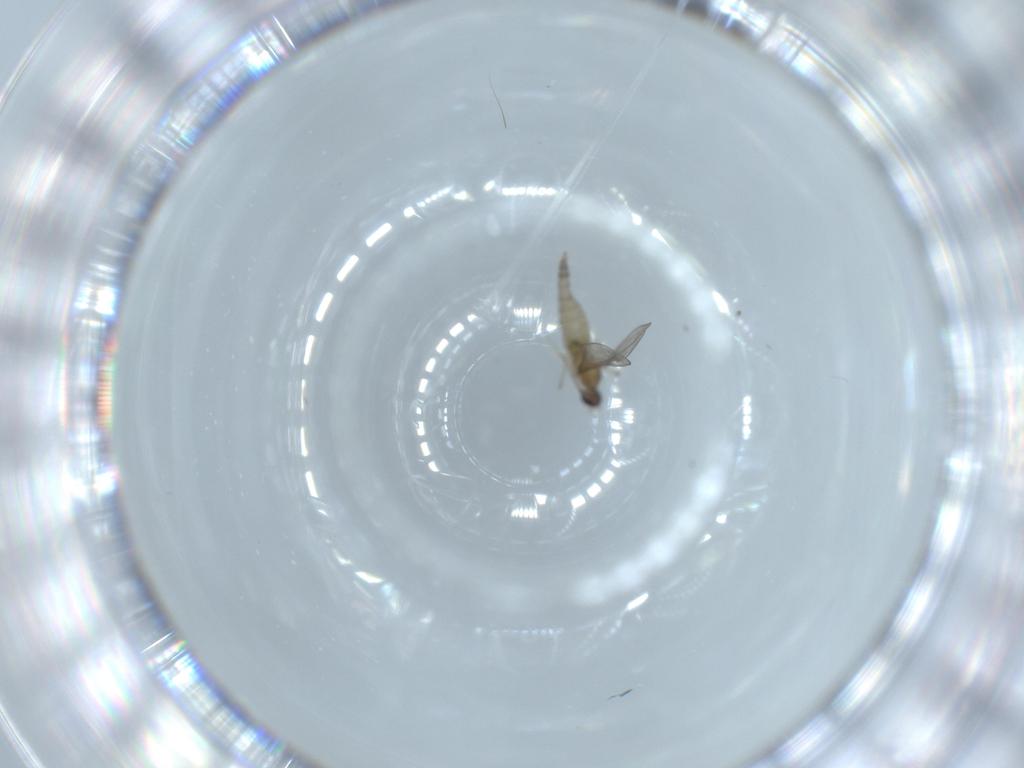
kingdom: Animalia
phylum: Arthropoda
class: Insecta
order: Diptera
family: Cecidomyiidae
